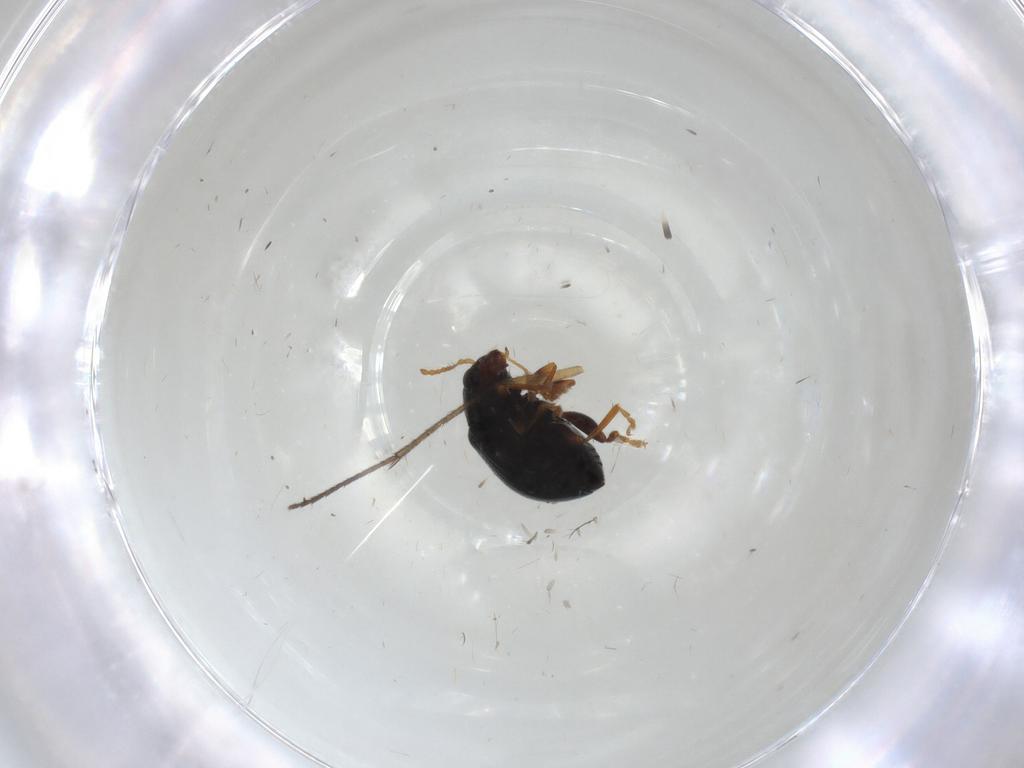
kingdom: Animalia
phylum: Arthropoda
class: Insecta
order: Coleoptera
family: Chrysomelidae
